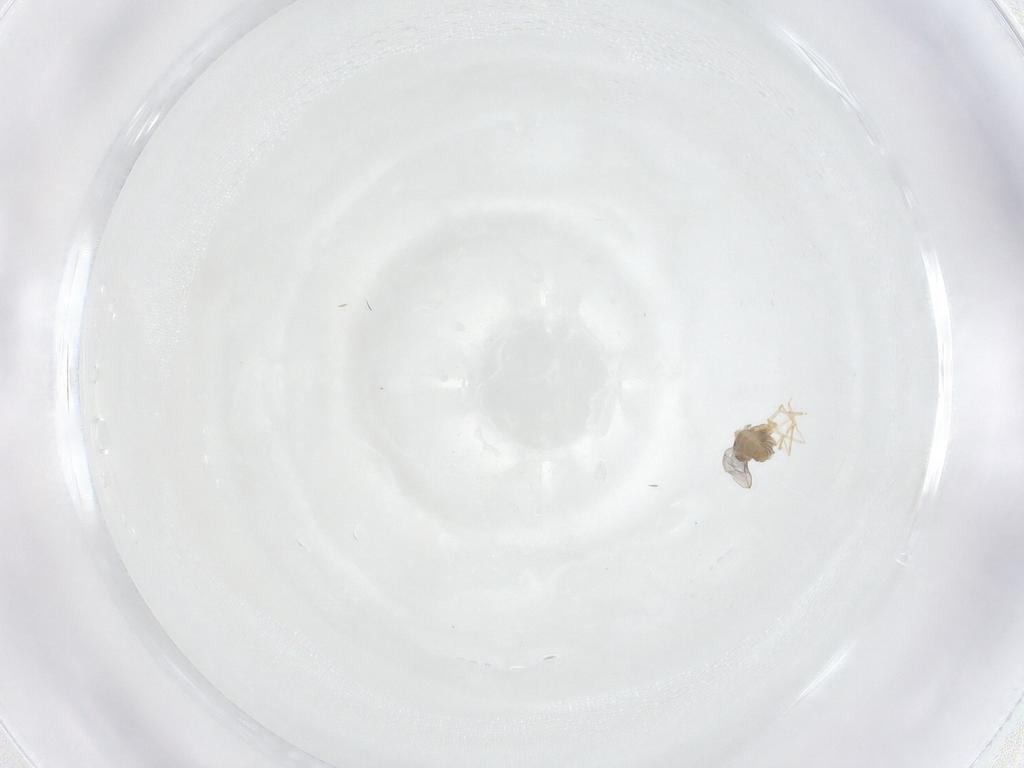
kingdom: Animalia
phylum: Arthropoda
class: Insecta
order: Diptera
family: Cecidomyiidae
